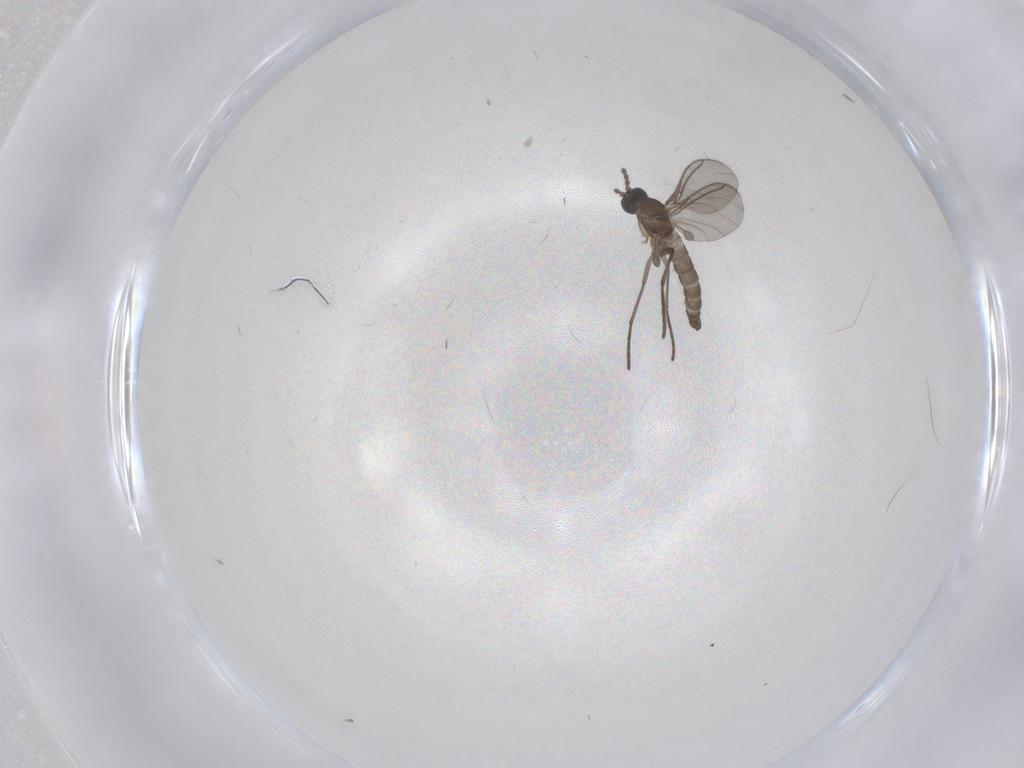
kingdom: Animalia
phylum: Arthropoda
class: Insecta
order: Diptera
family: Sciaridae
